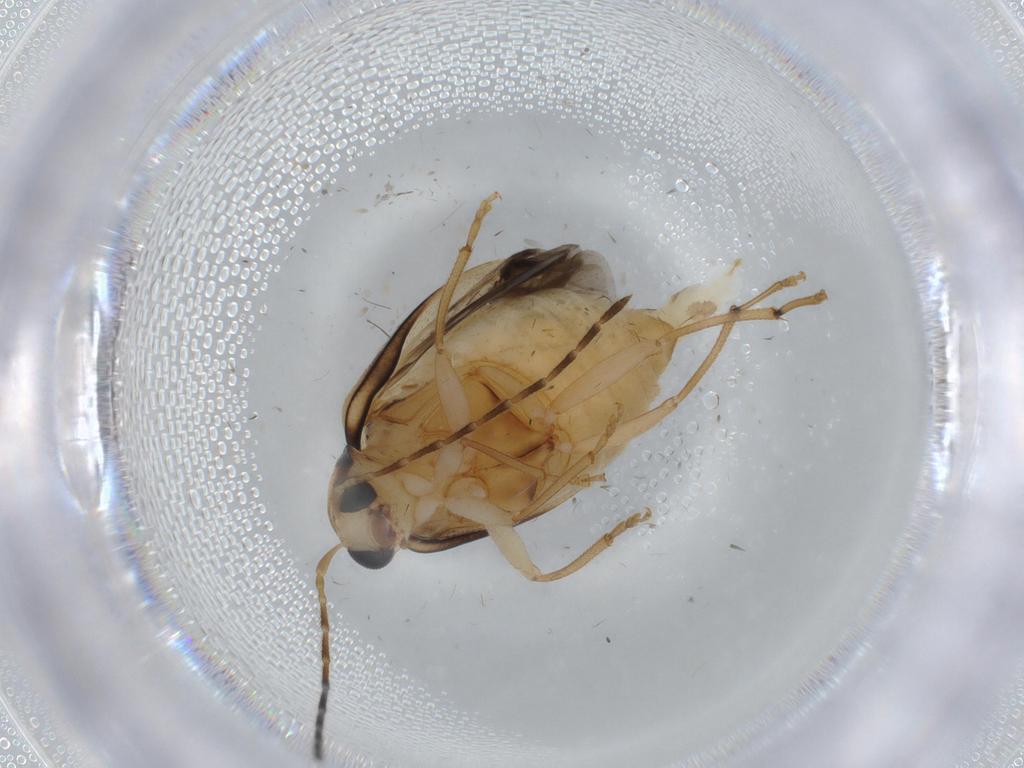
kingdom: Animalia
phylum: Arthropoda
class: Insecta
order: Coleoptera
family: Chrysomelidae
